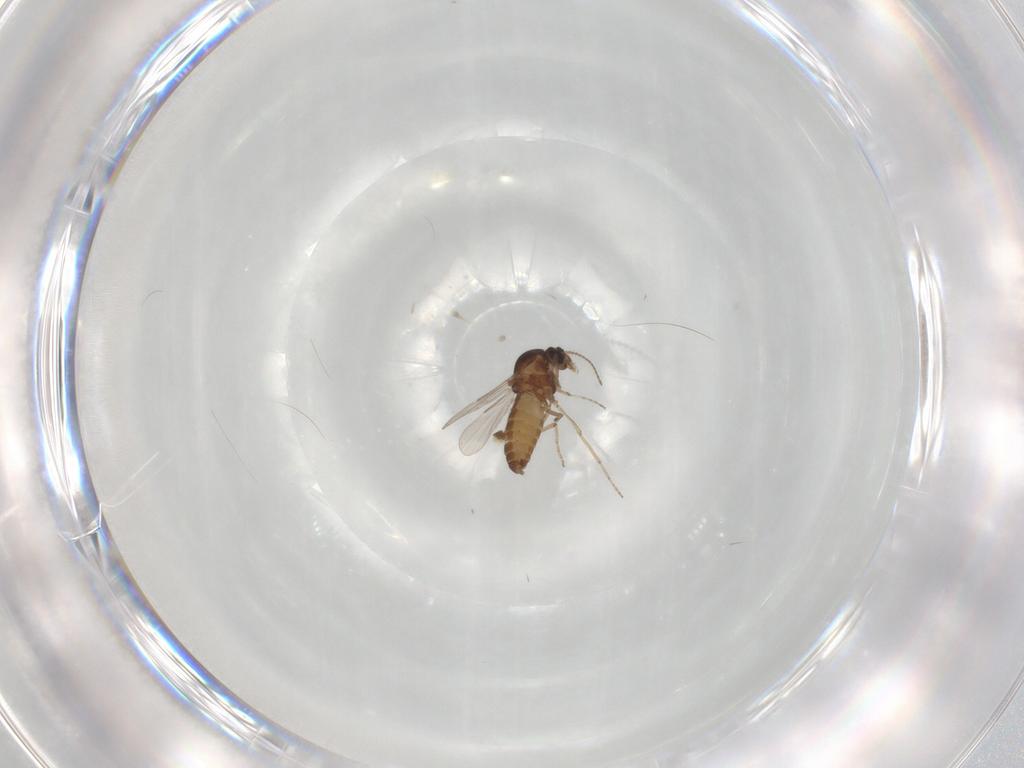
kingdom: Animalia
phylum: Arthropoda
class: Insecta
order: Diptera
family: Ceratopogonidae
